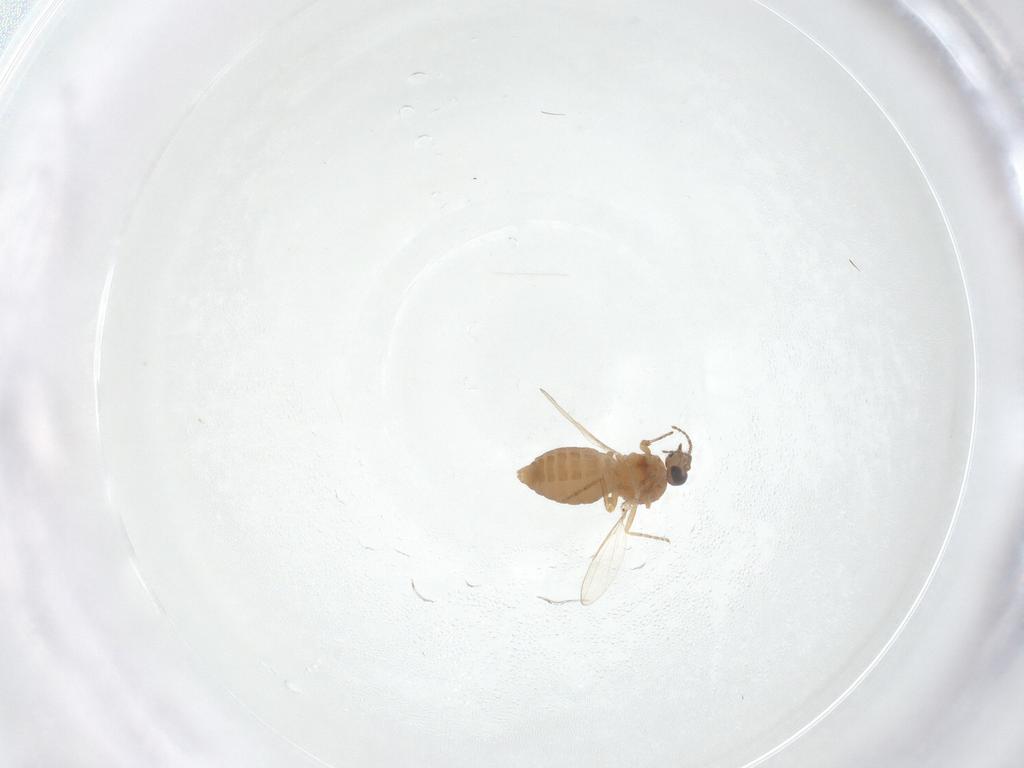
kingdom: Animalia
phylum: Arthropoda
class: Insecta
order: Diptera
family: Ceratopogonidae
